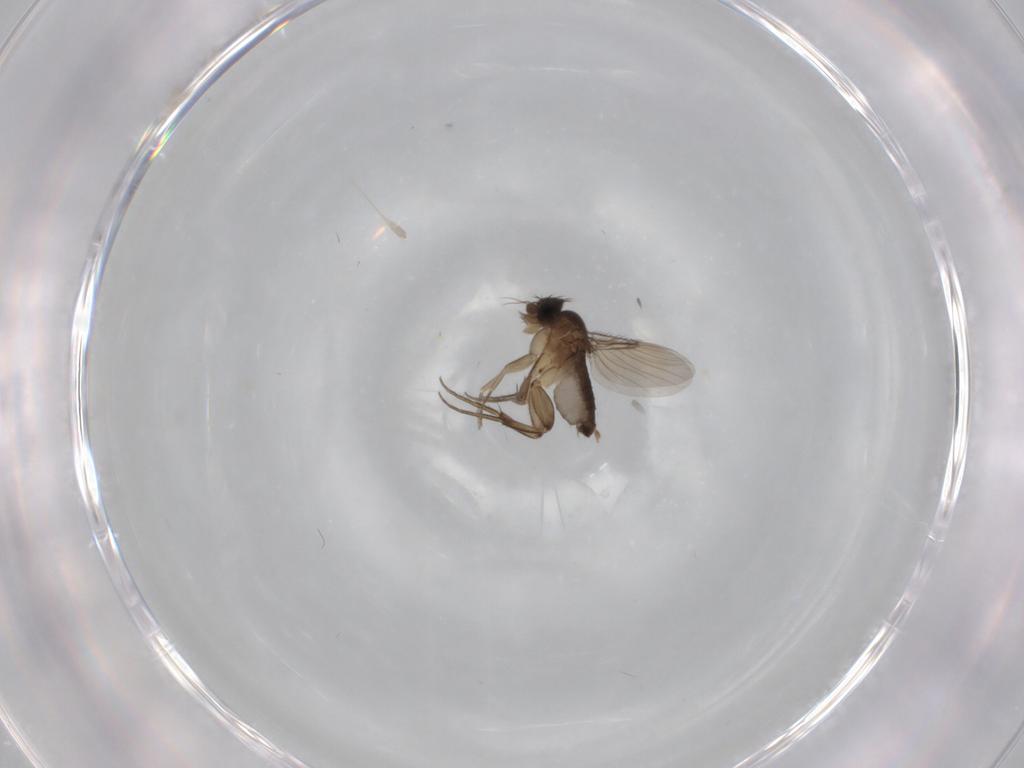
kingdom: Animalia
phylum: Arthropoda
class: Insecta
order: Diptera
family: Phoridae
